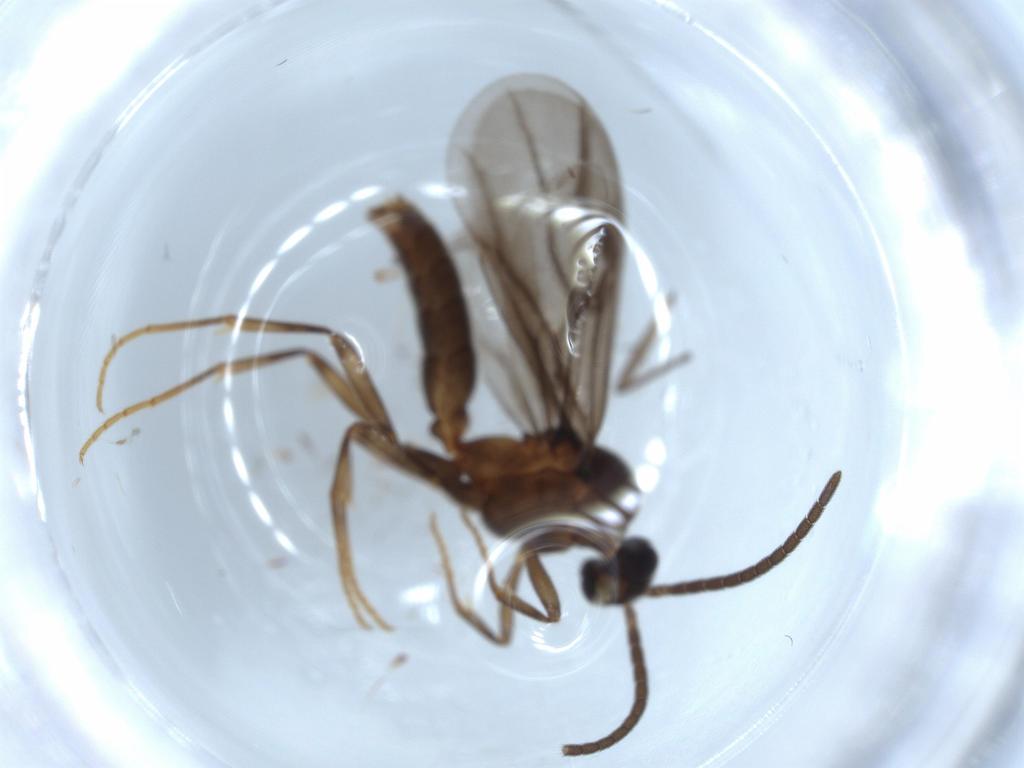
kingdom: Animalia
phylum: Arthropoda
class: Insecta
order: Hymenoptera
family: Formicidae
